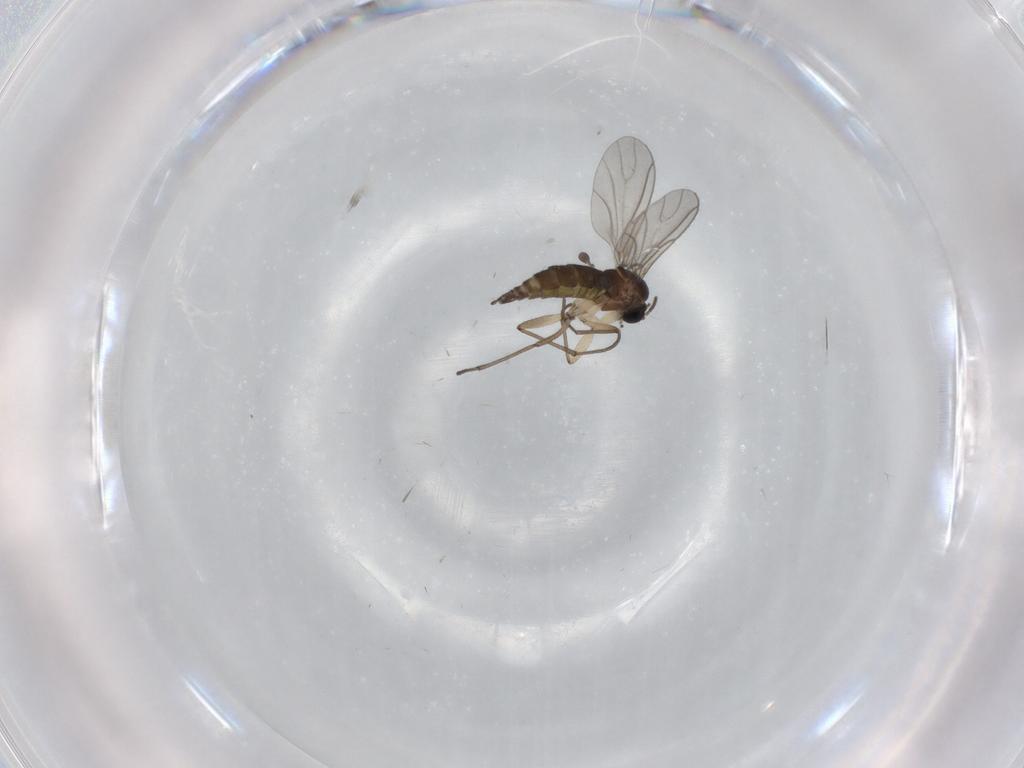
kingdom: Animalia
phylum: Arthropoda
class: Insecta
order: Diptera
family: Sciaridae
